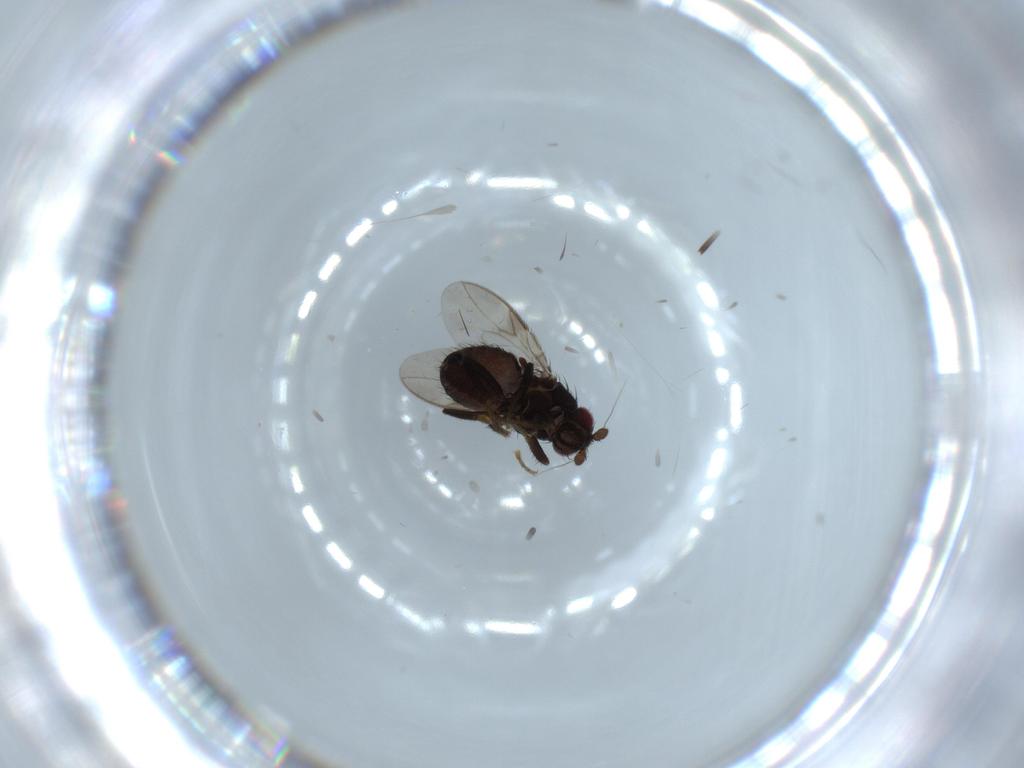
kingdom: Animalia
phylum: Arthropoda
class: Insecta
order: Diptera
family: Sphaeroceridae
